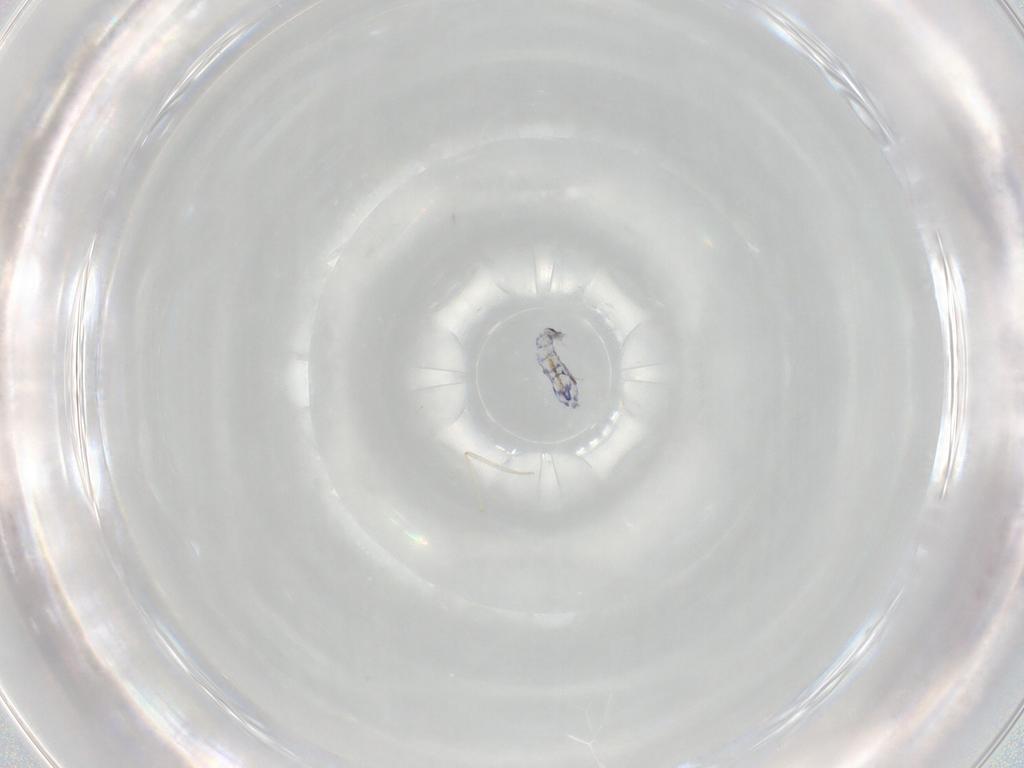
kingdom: Animalia
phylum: Arthropoda
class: Collembola
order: Entomobryomorpha
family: Entomobryidae
